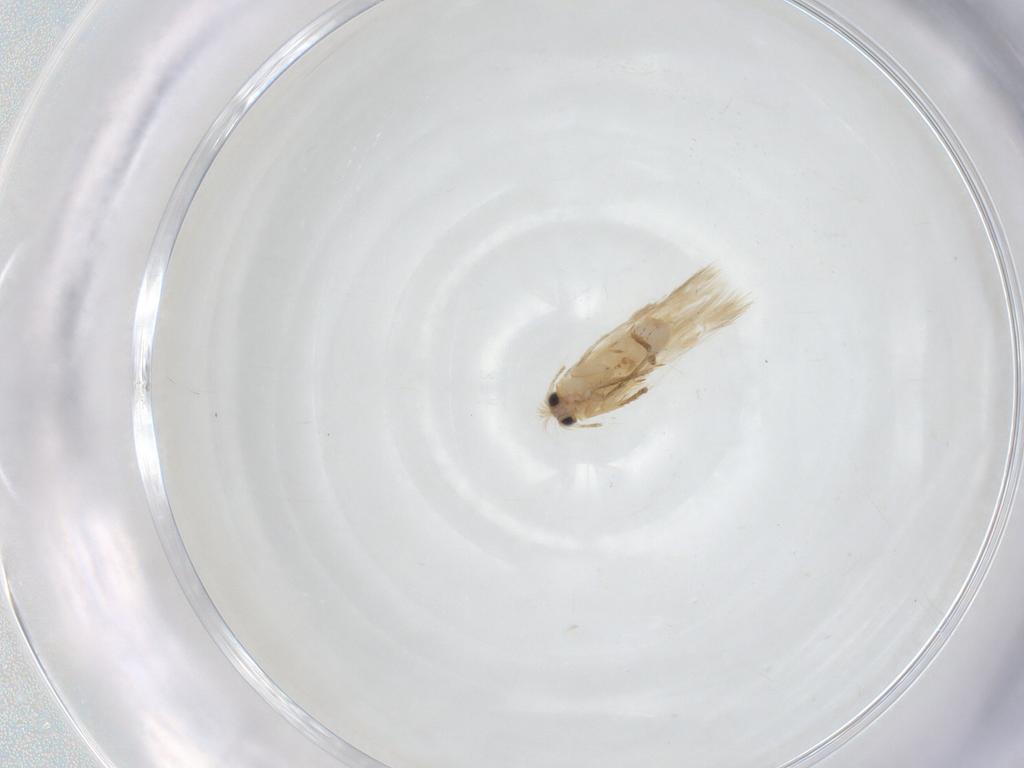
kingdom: Animalia
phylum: Arthropoda
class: Insecta
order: Lepidoptera
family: Nepticulidae
